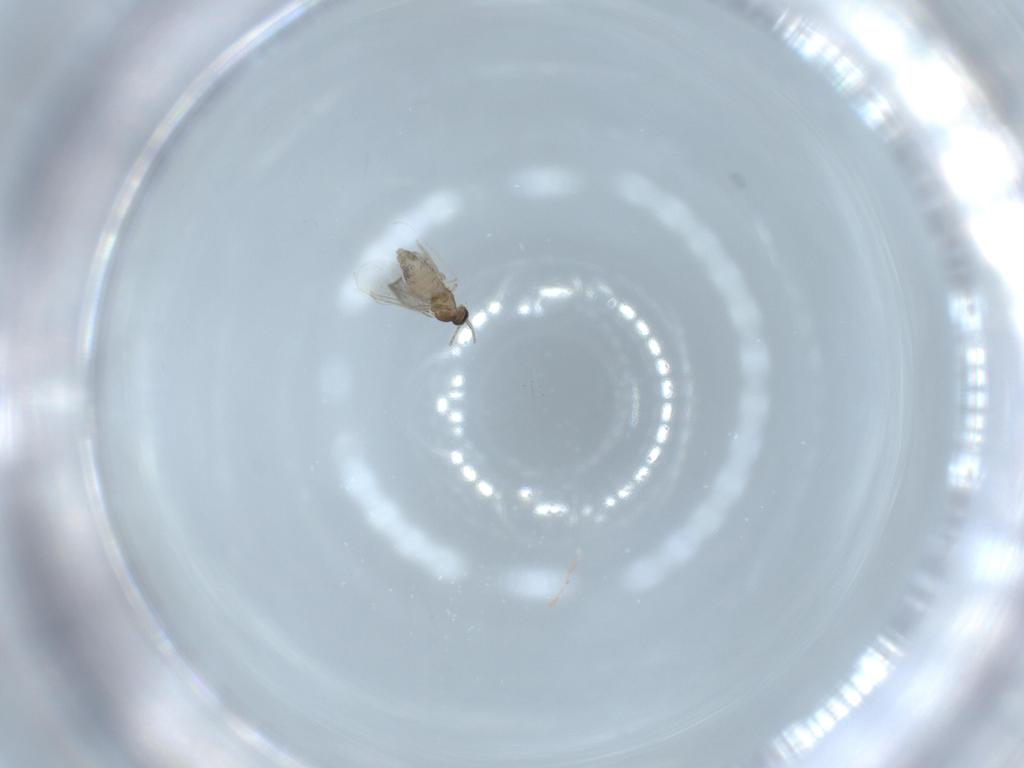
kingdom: Animalia
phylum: Arthropoda
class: Insecta
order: Diptera
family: Cecidomyiidae
